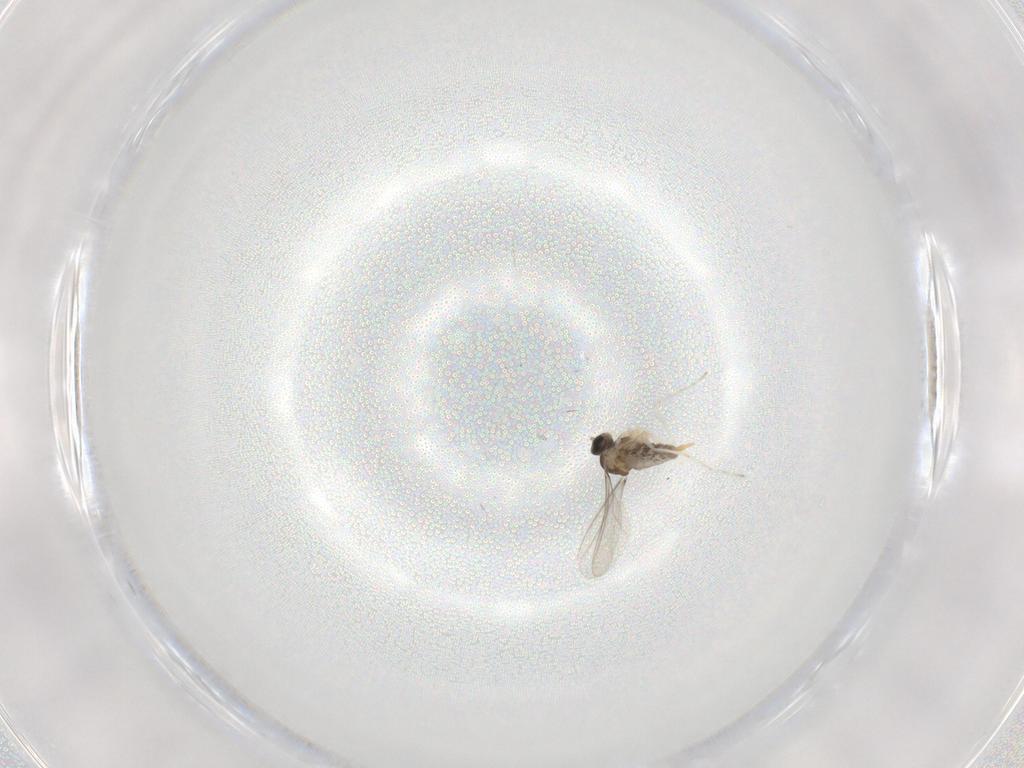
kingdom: Animalia
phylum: Arthropoda
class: Insecta
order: Diptera
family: Cecidomyiidae
